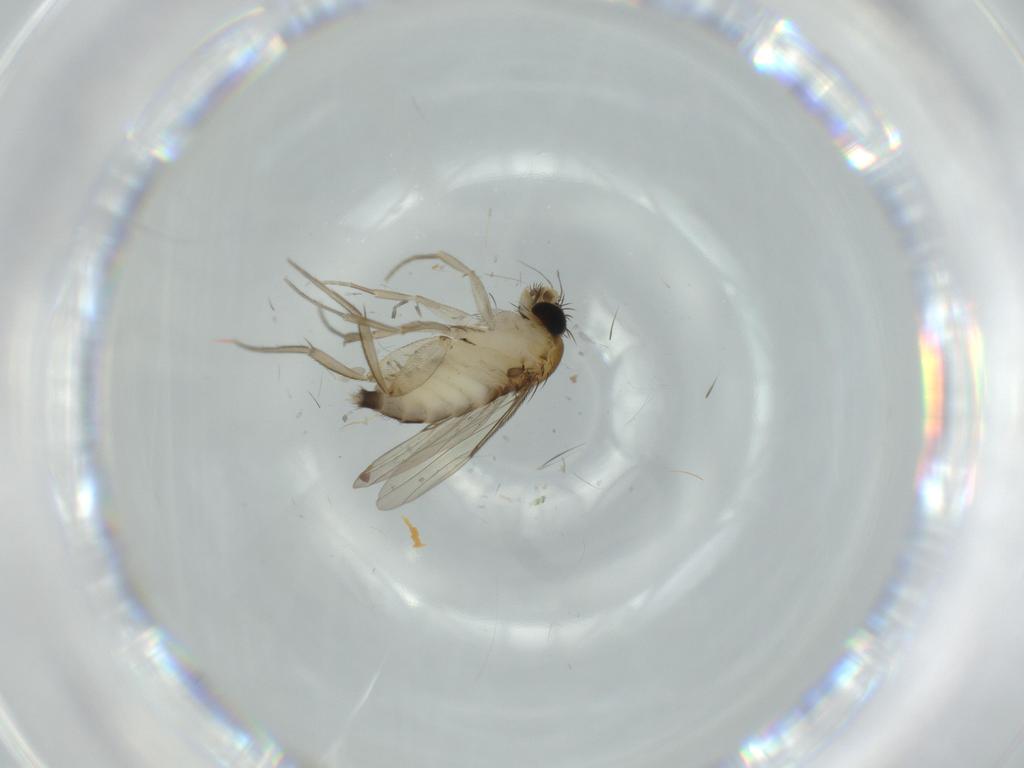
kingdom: Animalia
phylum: Arthropoda
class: Insecta
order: Diptera
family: Phoridae
